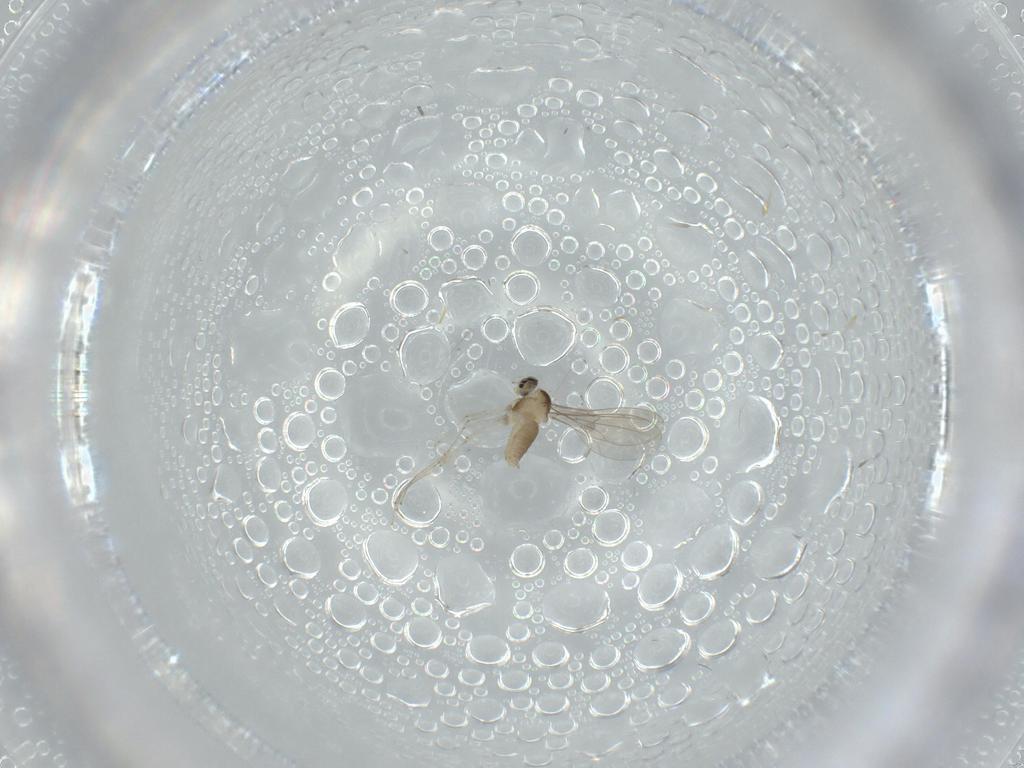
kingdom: Animalia
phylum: Arthropoda
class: Insecta
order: Diptera
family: Cecidomyiidae
